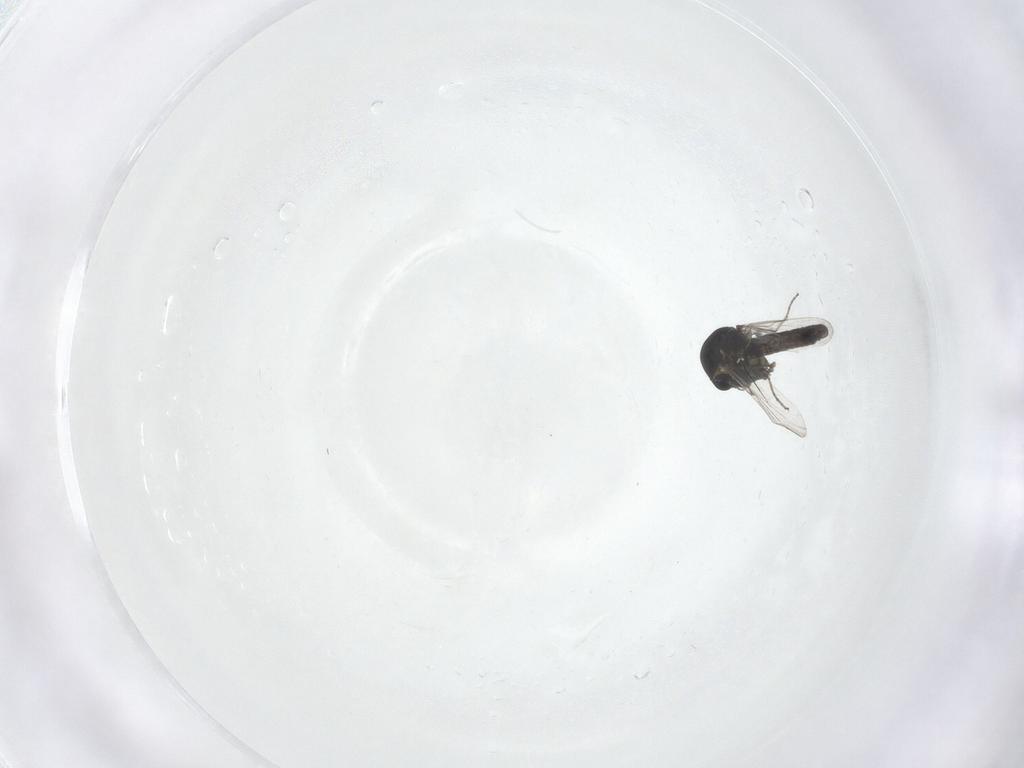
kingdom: Animalia
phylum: Arthropoda
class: Insecta
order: Diptera
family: Ceratopogonidae
